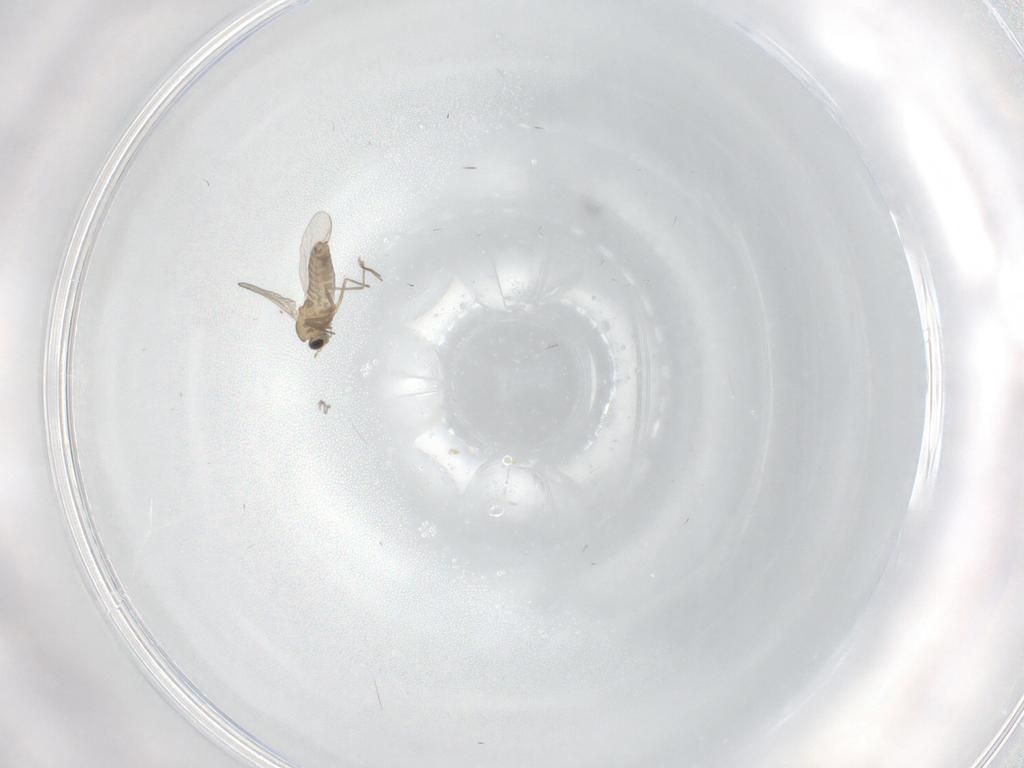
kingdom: Animalia
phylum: Arthropoda
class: Insecta
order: Diptera
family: Chironomidae
